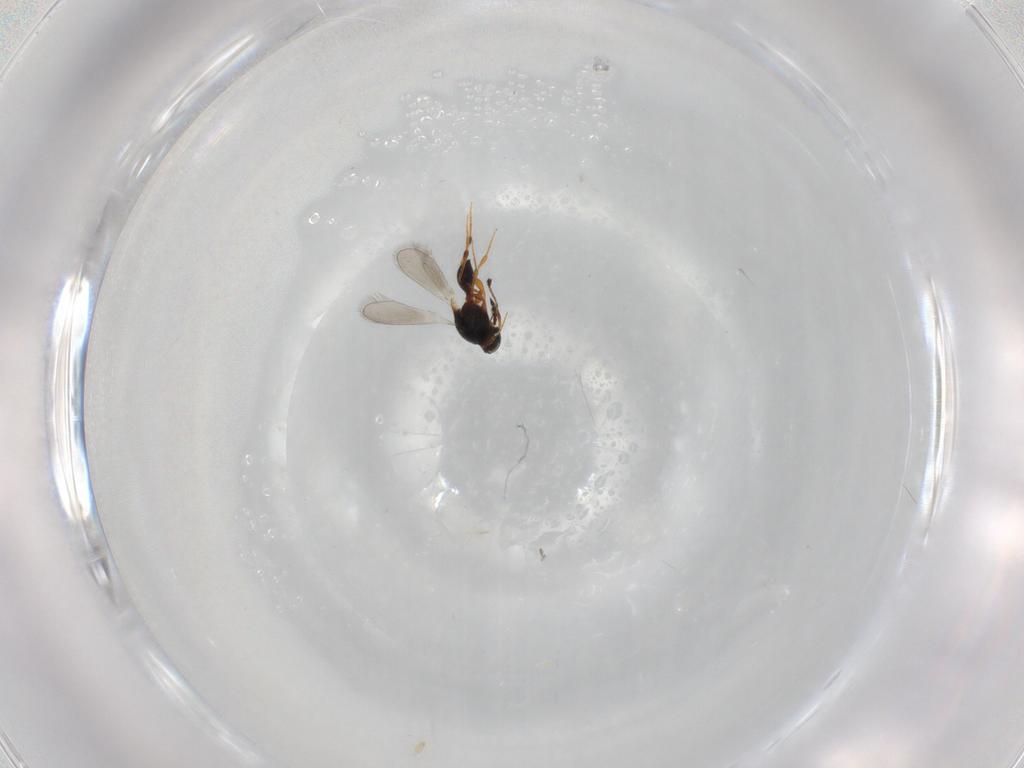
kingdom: Animalia
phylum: Arthropoda
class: Insecta
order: Hymenoptera
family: Platygastridae
